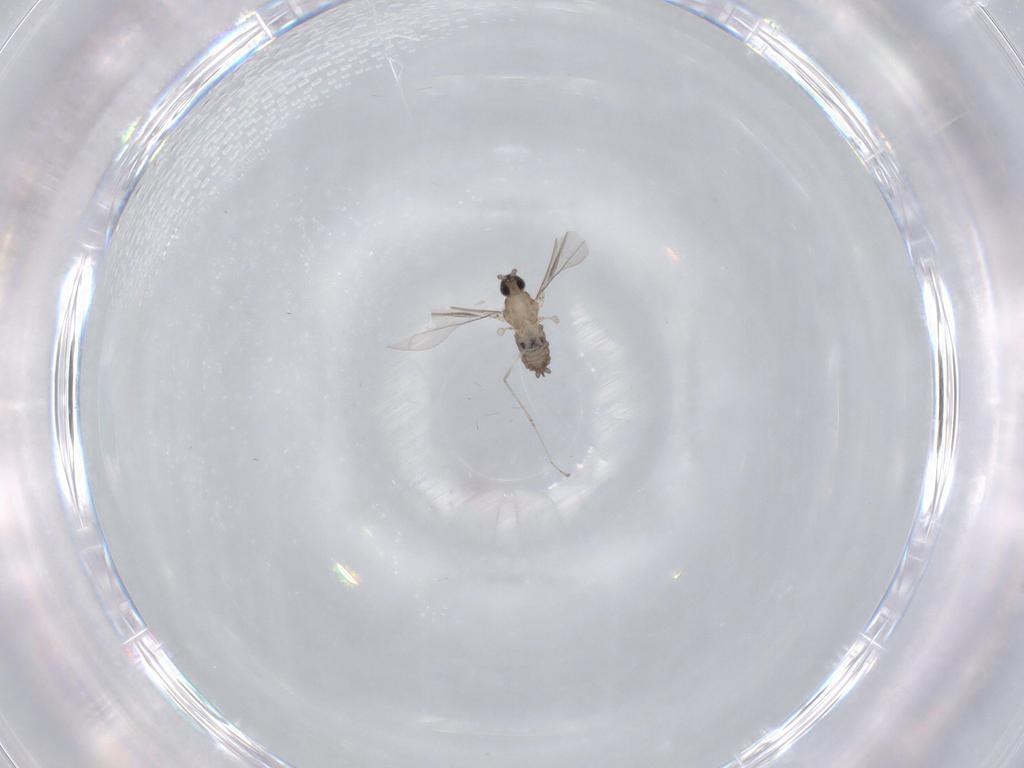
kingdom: Animalia
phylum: Arthropoda
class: Insecta
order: Diptera
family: Cecidomyiidae
